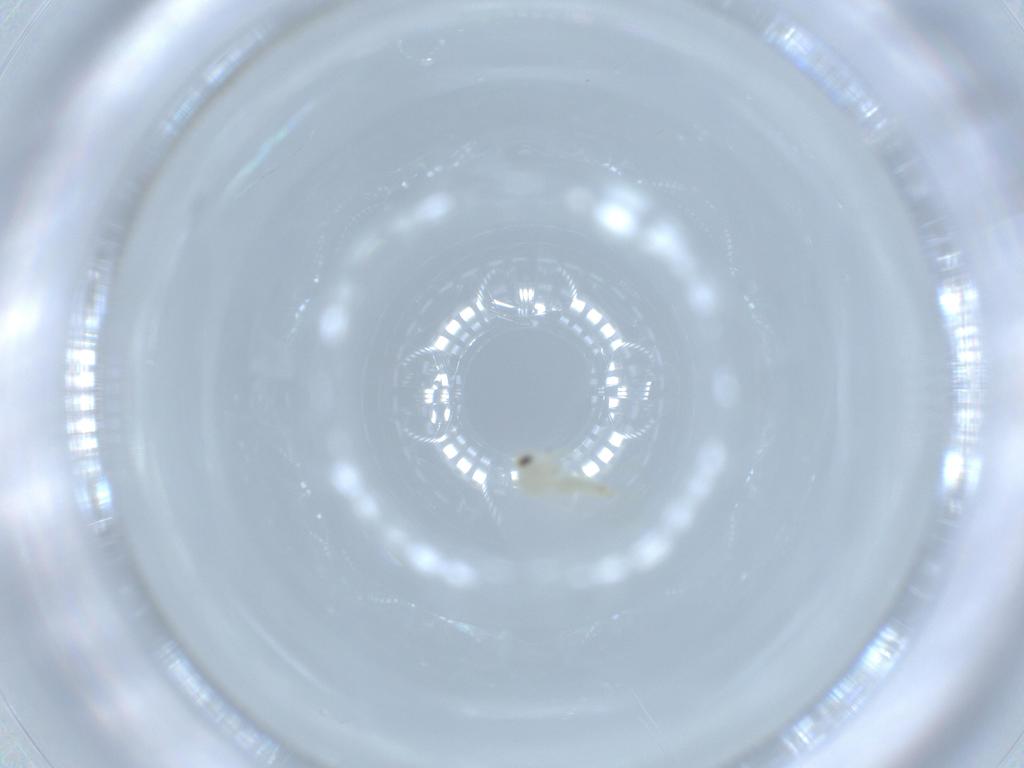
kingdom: Animalia
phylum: Arthropoda
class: Insecta
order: Hemiptera
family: Aleyrodidae
